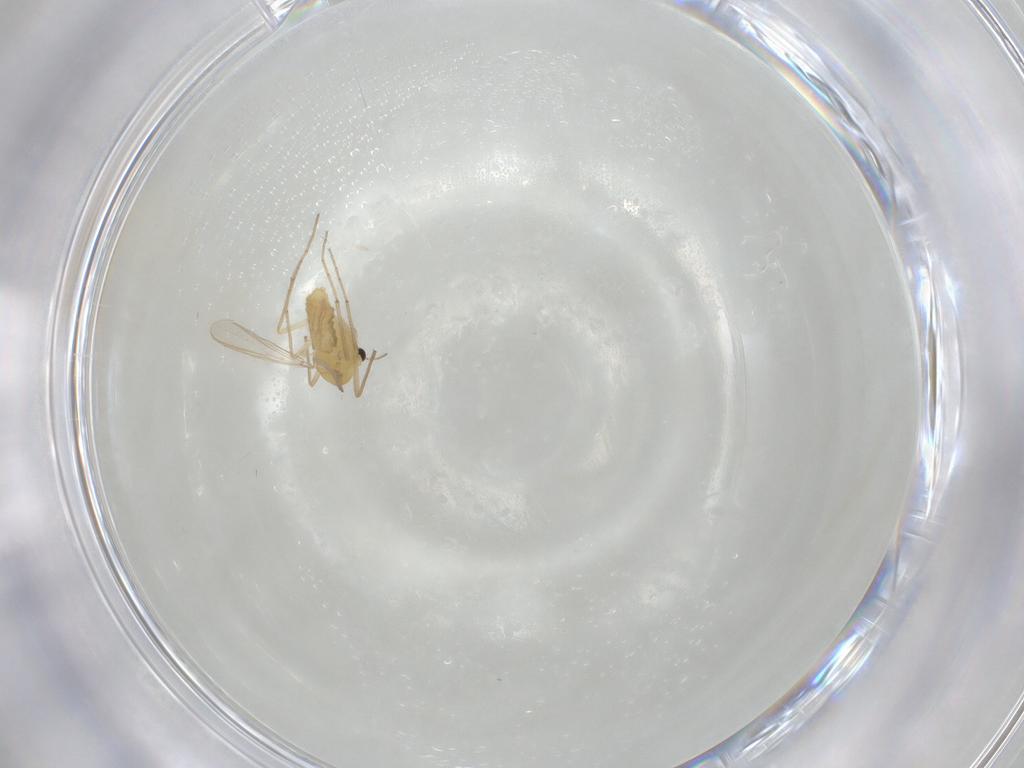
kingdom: Animalia
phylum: Arthropoda
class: Insecta
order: Diptera
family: Chironomidae
